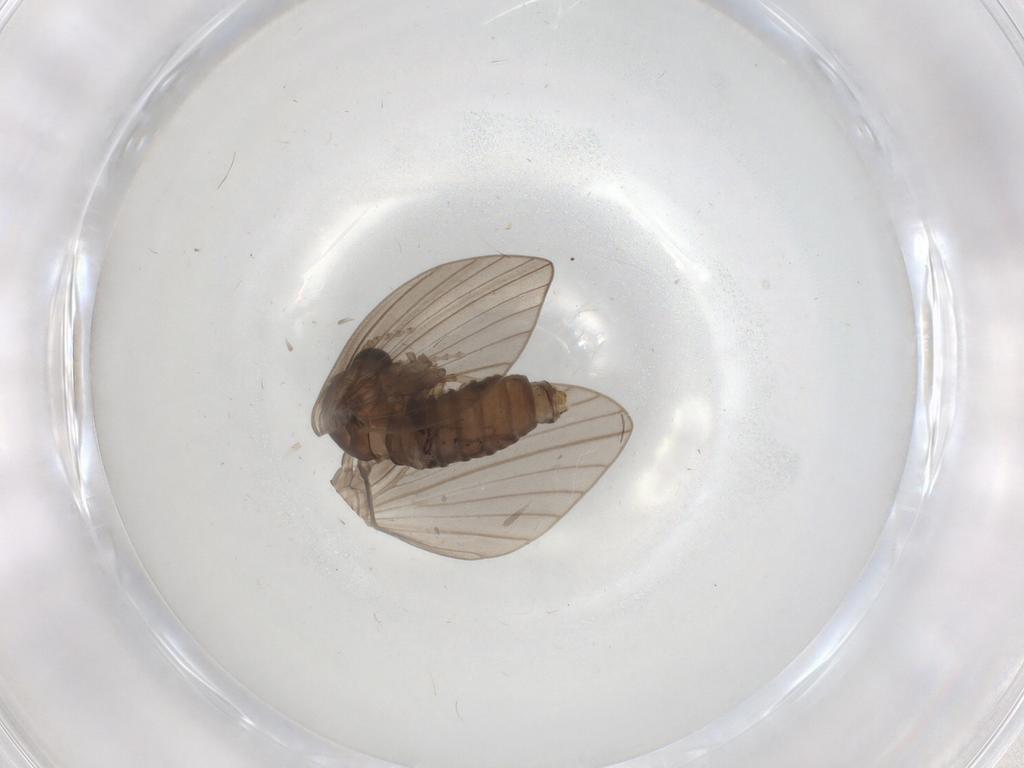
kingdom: Animalia
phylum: Arthropoda
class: Insecta
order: Diptera
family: Psychodidae
